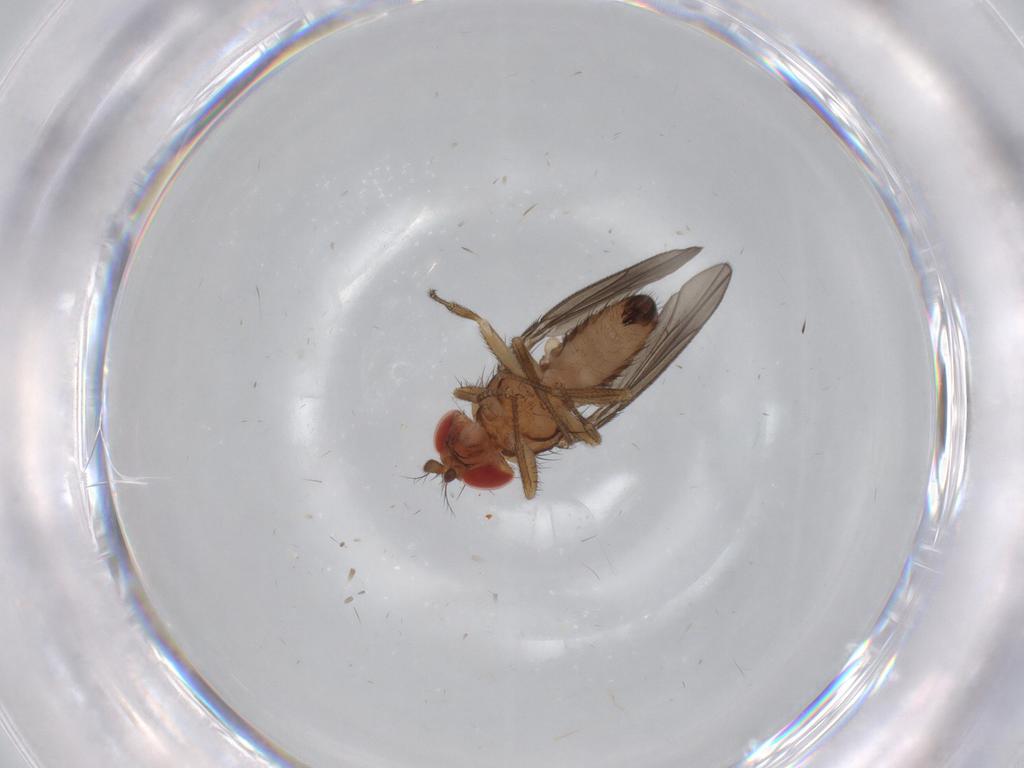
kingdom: Animalia
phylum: Arthropoda
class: Insecta
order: Diptera
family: Drosophilidae
